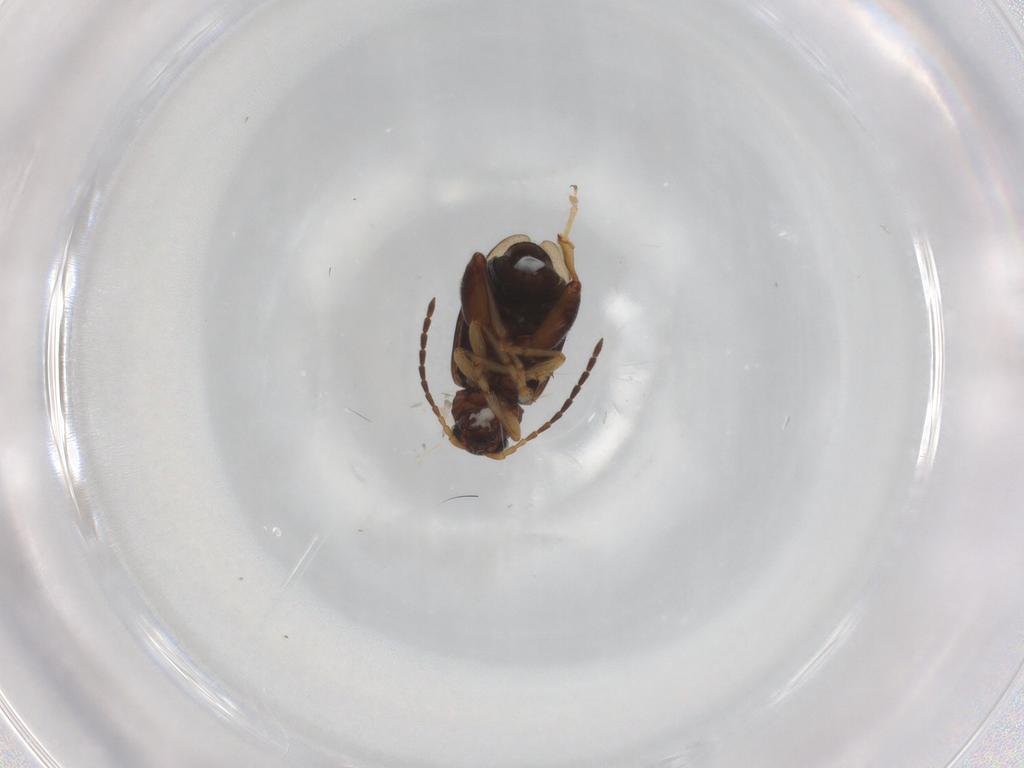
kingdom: Animalia
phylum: Arthropoda
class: Insecta
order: Coleoptera
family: Chrysomelidae
